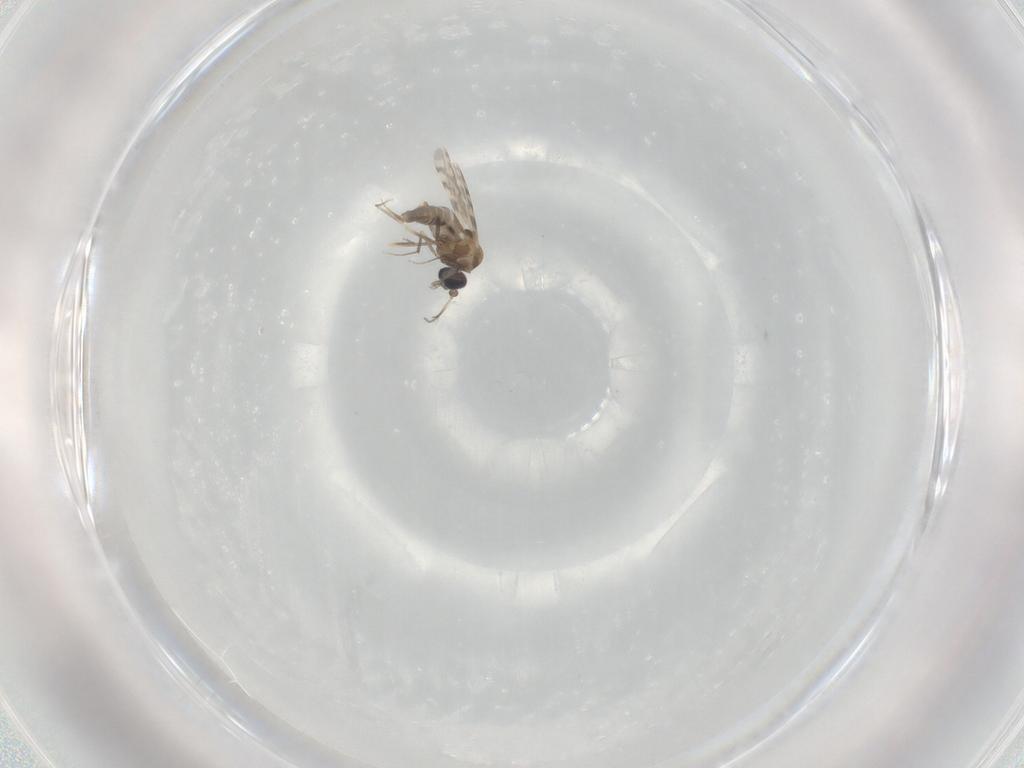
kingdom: Animalia
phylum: Arthropoda
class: Insecta
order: Diptera
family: Ceratopogonidae
